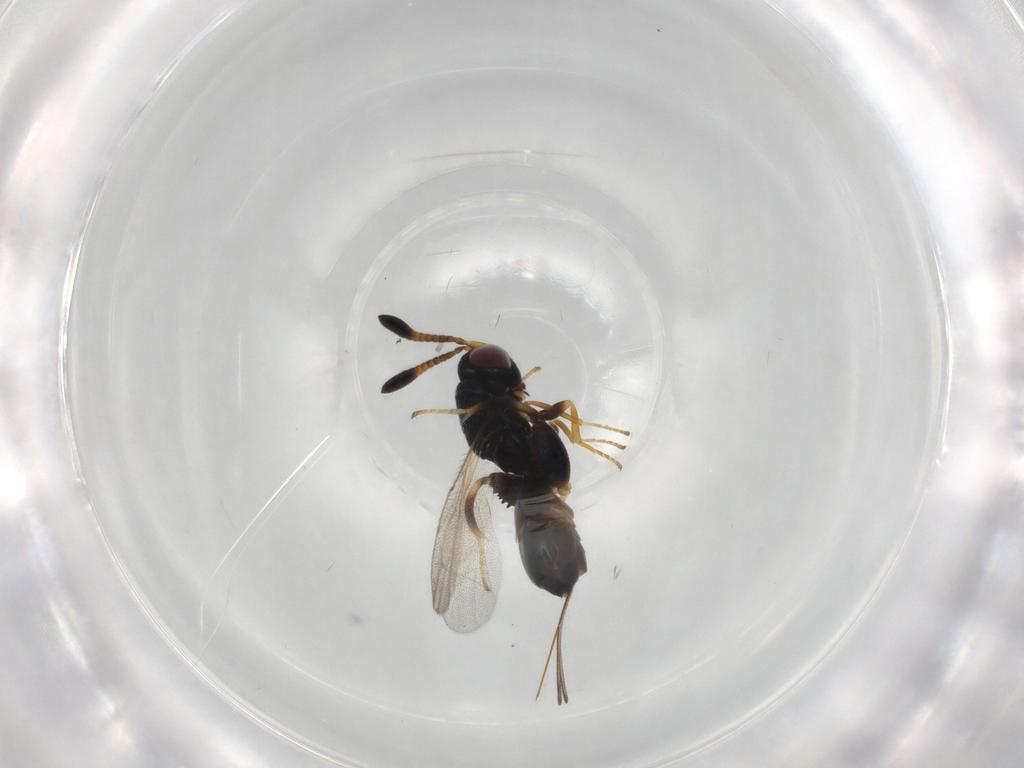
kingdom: Animalia
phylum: Arthropoda
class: Insecta
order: Hymenoptera
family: Torymidae
